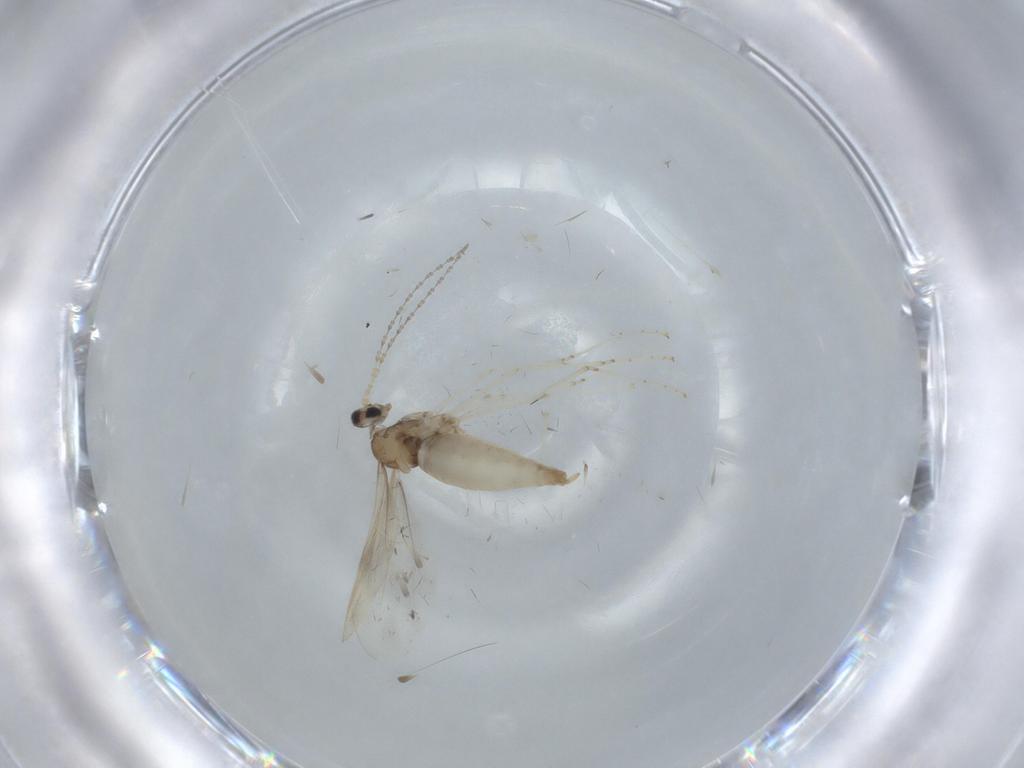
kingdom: Animalia
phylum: Arthropoda
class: Insecta
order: Diptera
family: Cecidomyiidae
